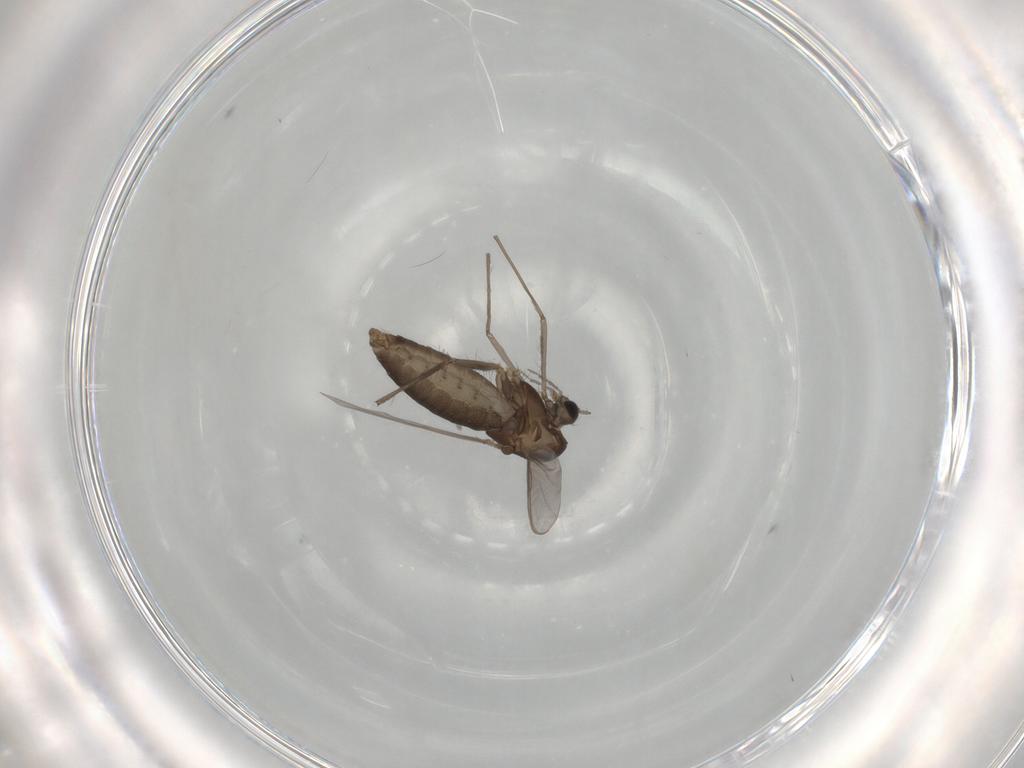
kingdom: Animalia
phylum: Arthropoda
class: Insecta
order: Diptera
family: Chironomidae
